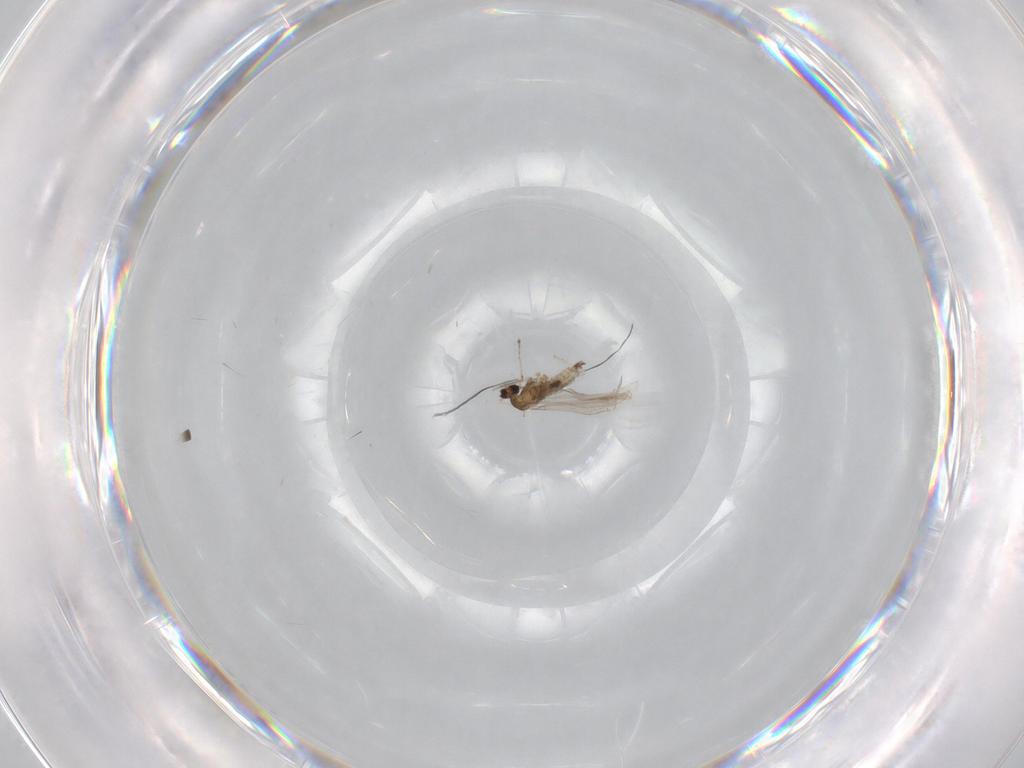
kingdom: Animalia
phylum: Arthropoda
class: Insecta
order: Diptera
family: Cecidomyiidae
